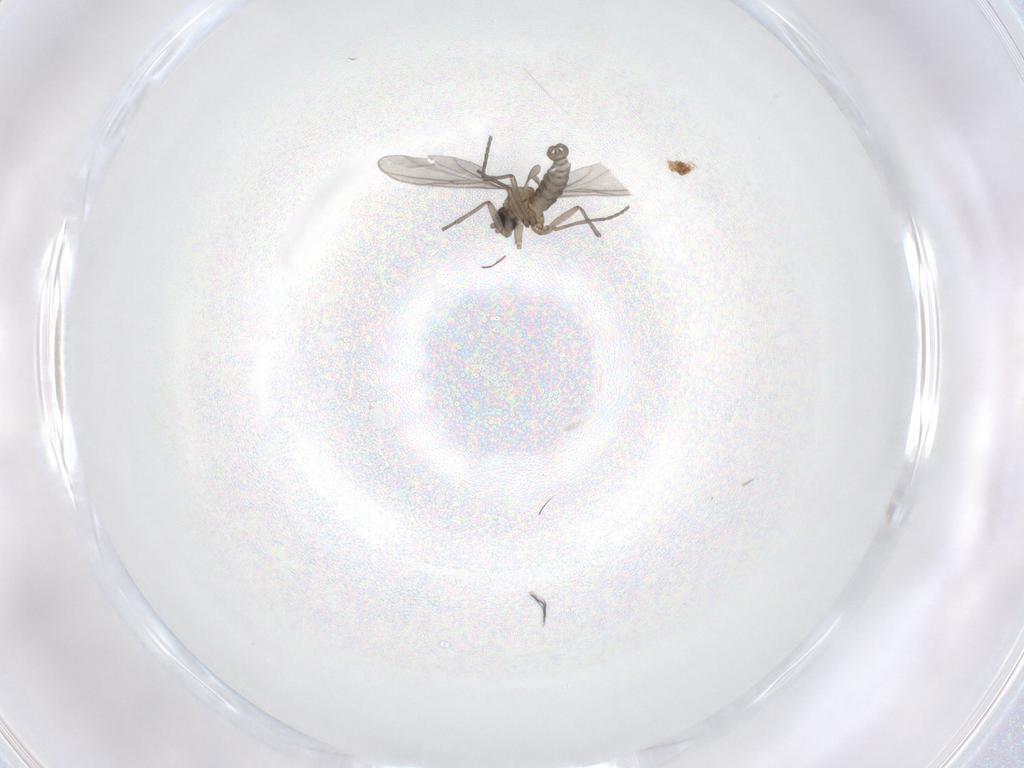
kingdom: Animalia
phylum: Arthropoda
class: Insecta
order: Diptera
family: Sciaridae
